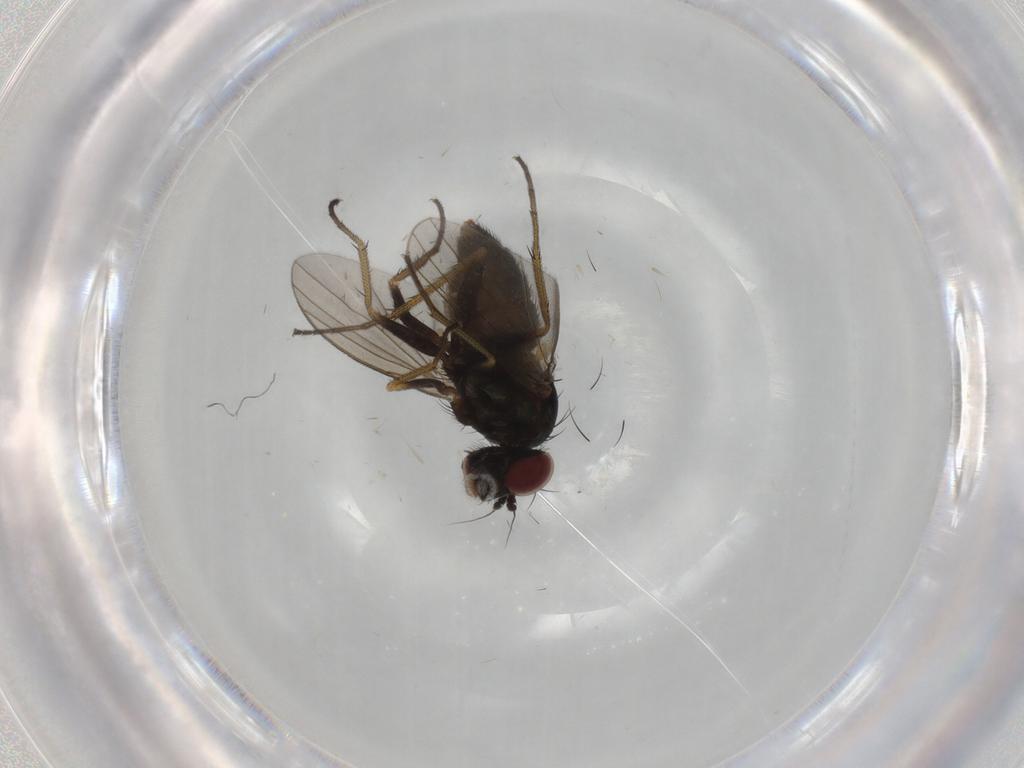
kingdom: Animalia
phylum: Arthropoda
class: Insecta
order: Diptera
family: Dolichopodidae
